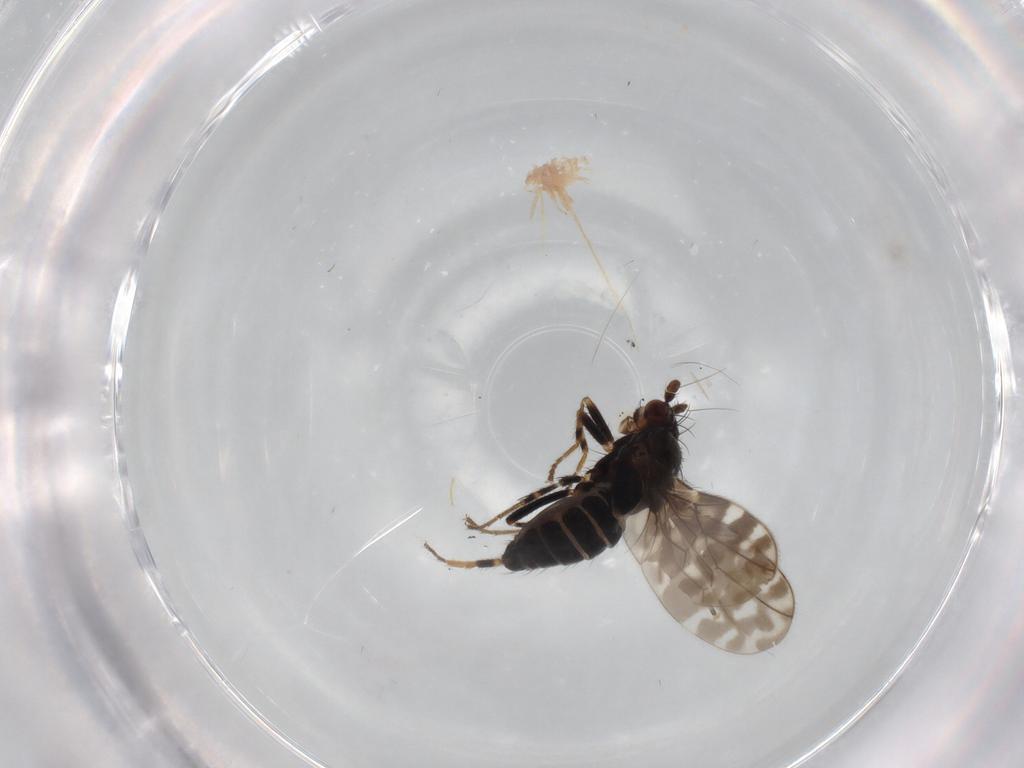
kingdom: Animalia
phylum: Arthropoda
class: Insecta
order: Diptera
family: Sphaeroceridae
